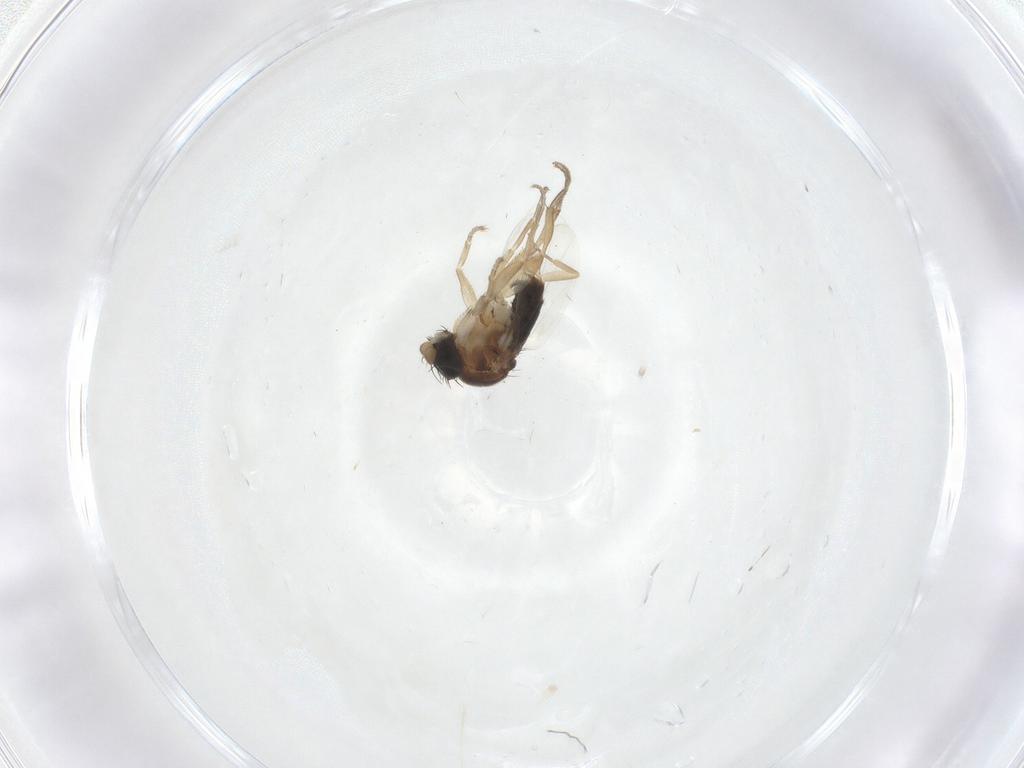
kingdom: Animalia
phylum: Arthropoda
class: Insecta
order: Diptera
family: Phoridae
